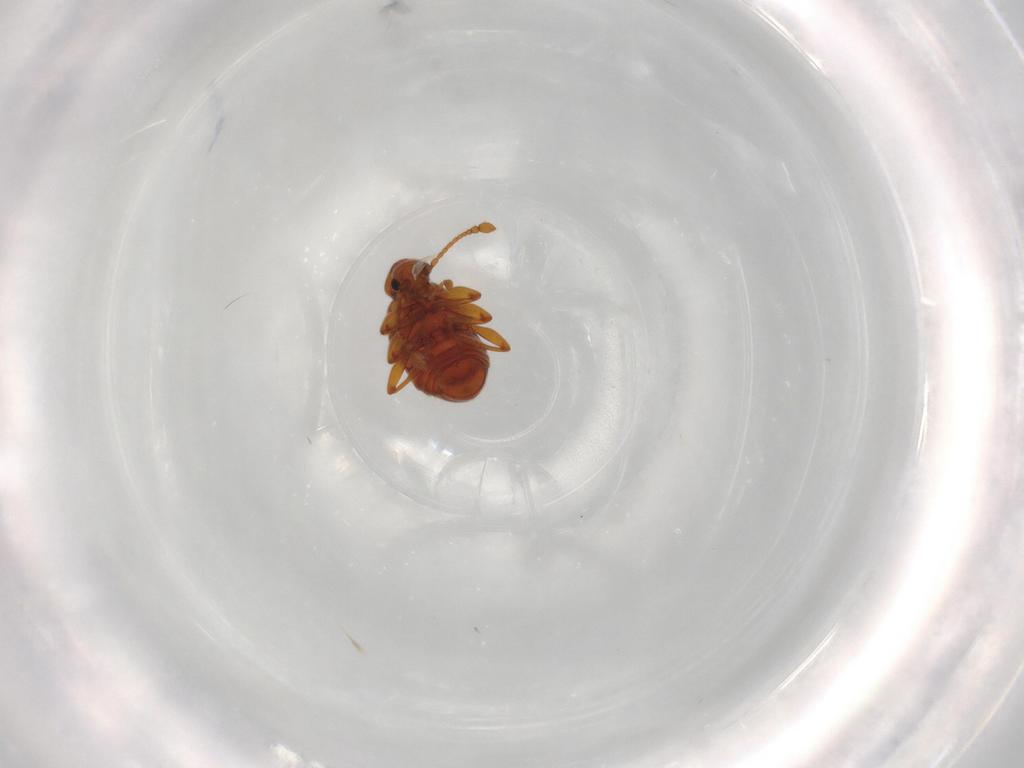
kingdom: Animalia
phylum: Arthropoda
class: Insecta
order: Coleoptera
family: Staphylinidae
